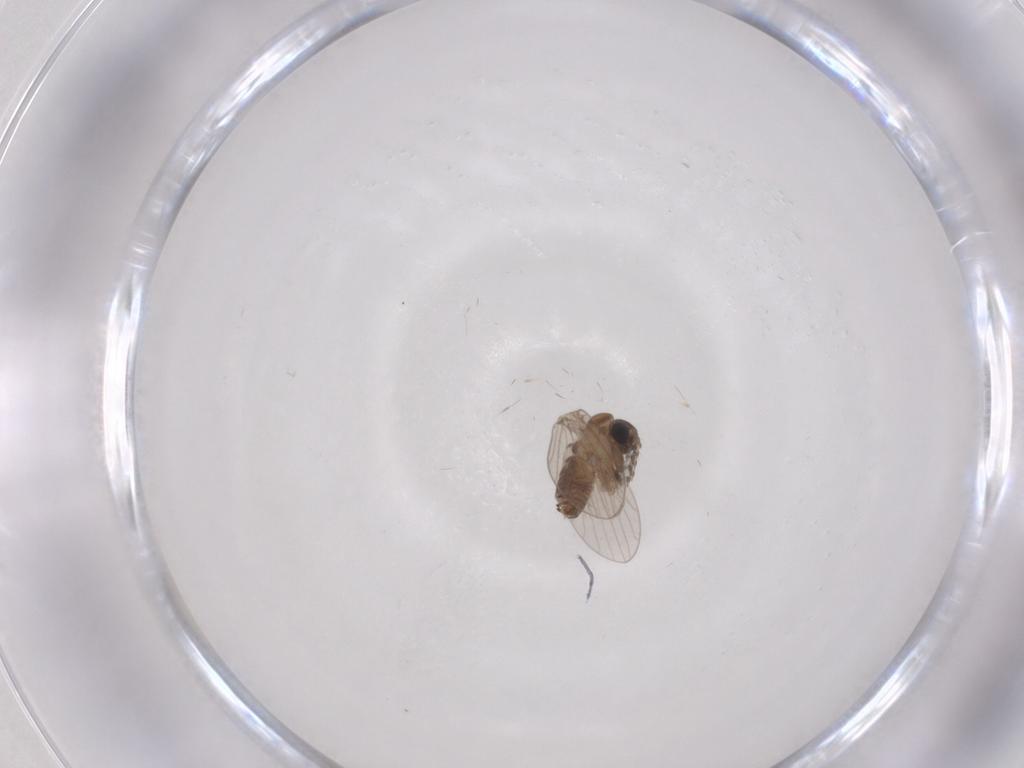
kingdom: Animalia
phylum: Arthropoda
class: Insecta
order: Diptera
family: Psychodidae
